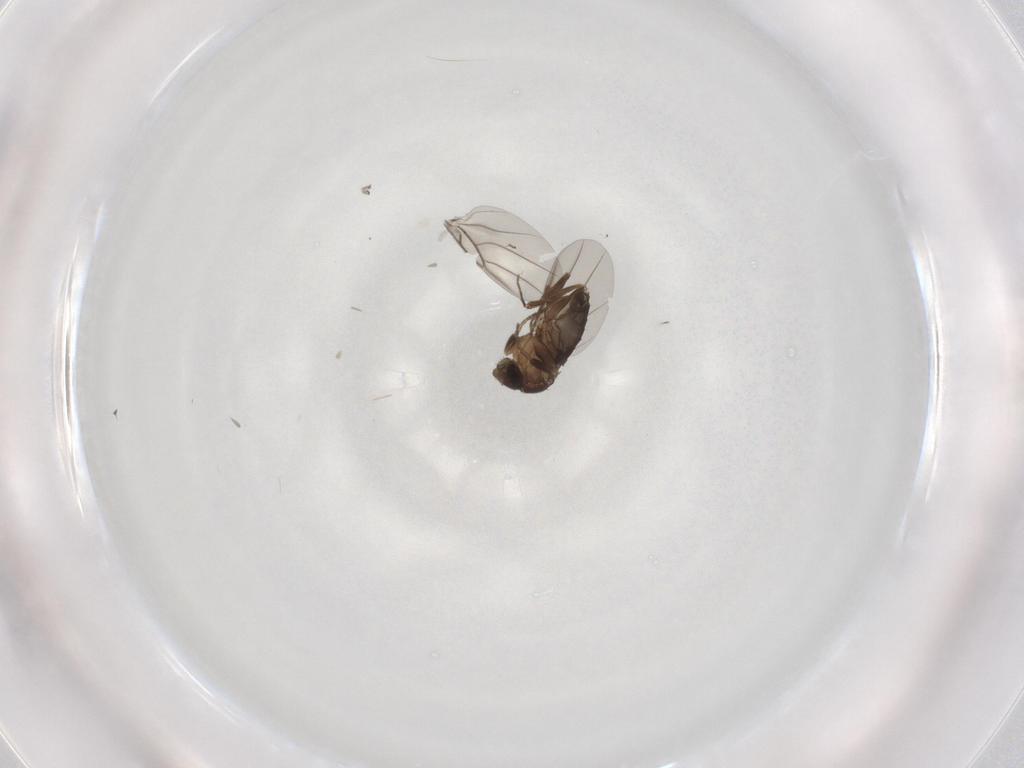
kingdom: Animalia
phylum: Arthropoda
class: Insecta
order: Diptera
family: Phoridae
